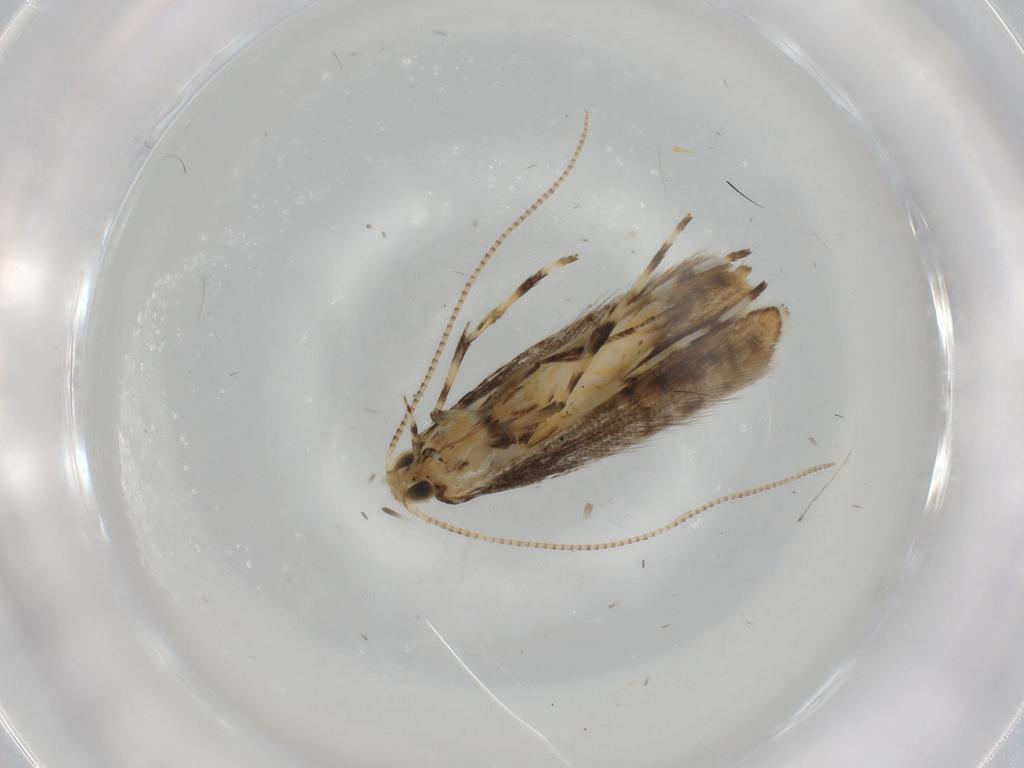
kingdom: Animalia
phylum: Arthropoda
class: Insecta
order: Lepidoptera
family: Gracillariidae
